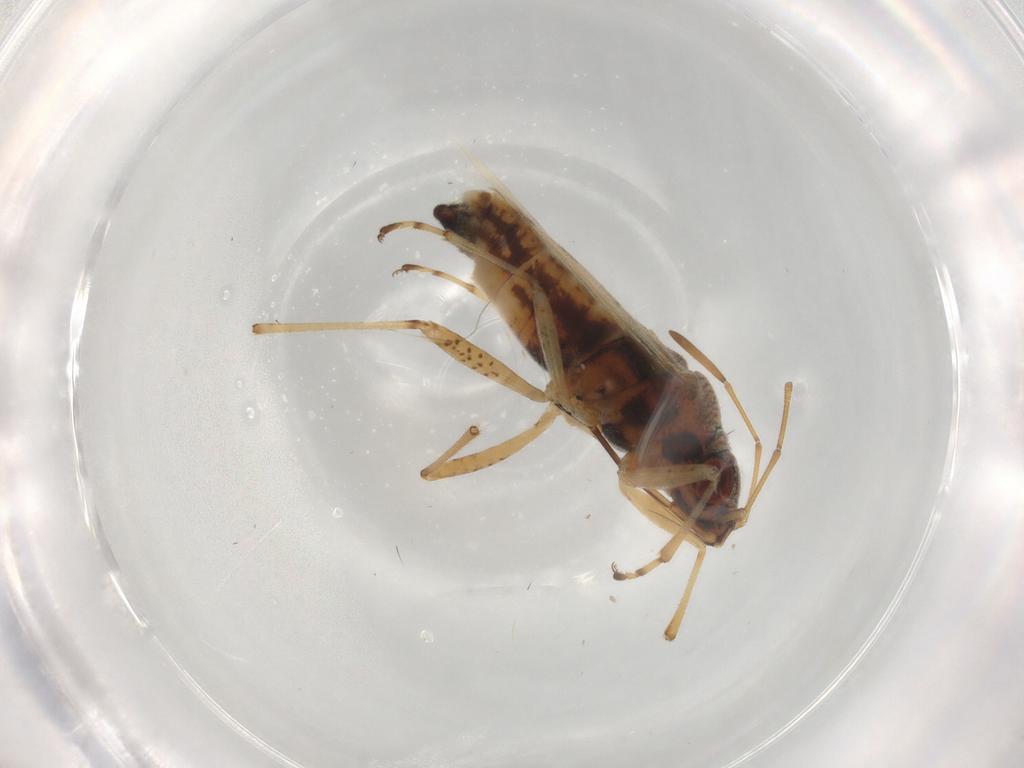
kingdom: Animalia
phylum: Arthropoda
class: Insecta
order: Hemiptera
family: Lygaeidae
